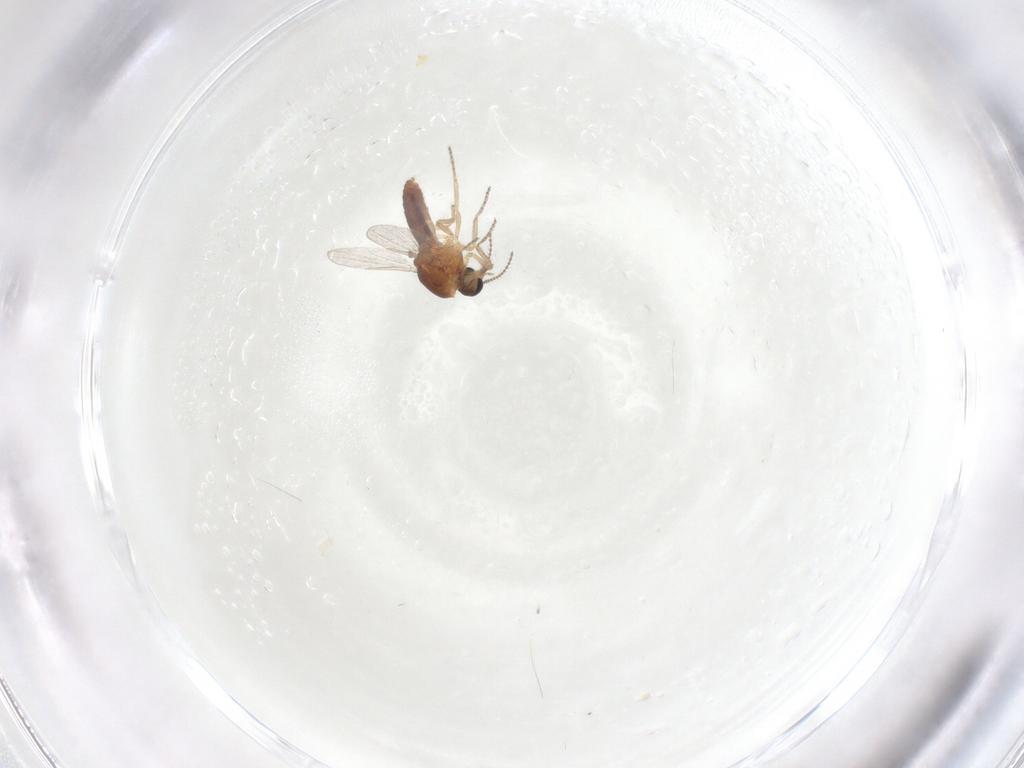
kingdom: Animalia
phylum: Arthropoda
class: Insecta
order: Diptera
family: Ceratopogonidae
